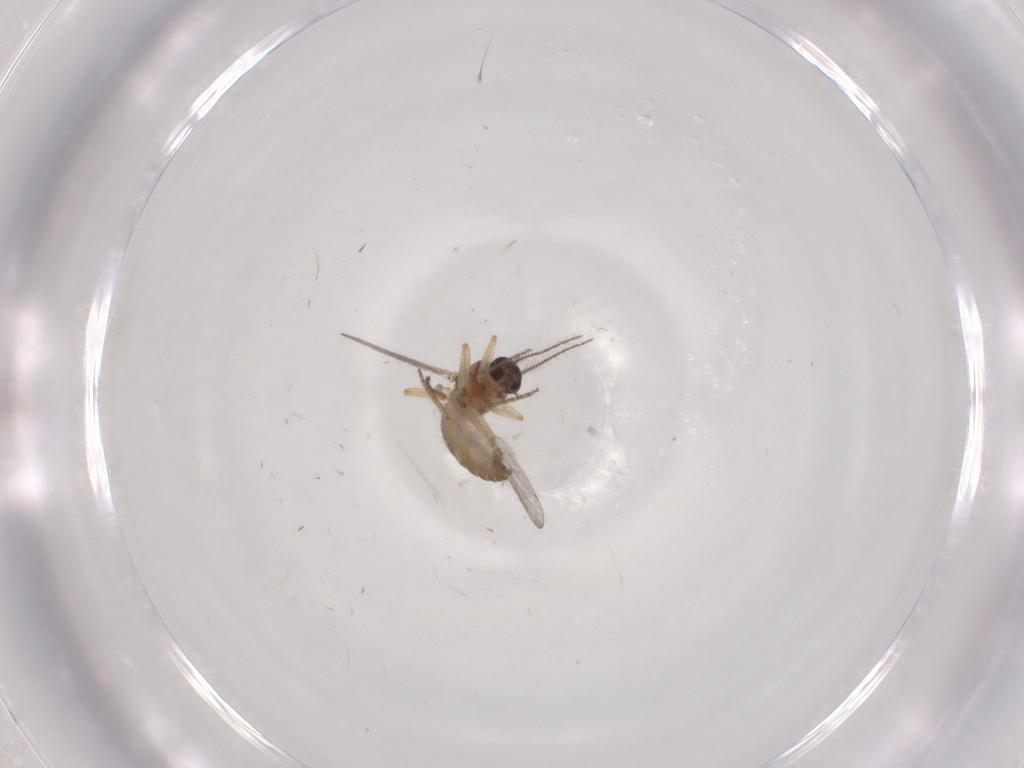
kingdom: Animalia
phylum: Arthropoda
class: Insecta
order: Diptera
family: Ceratopogonidae
